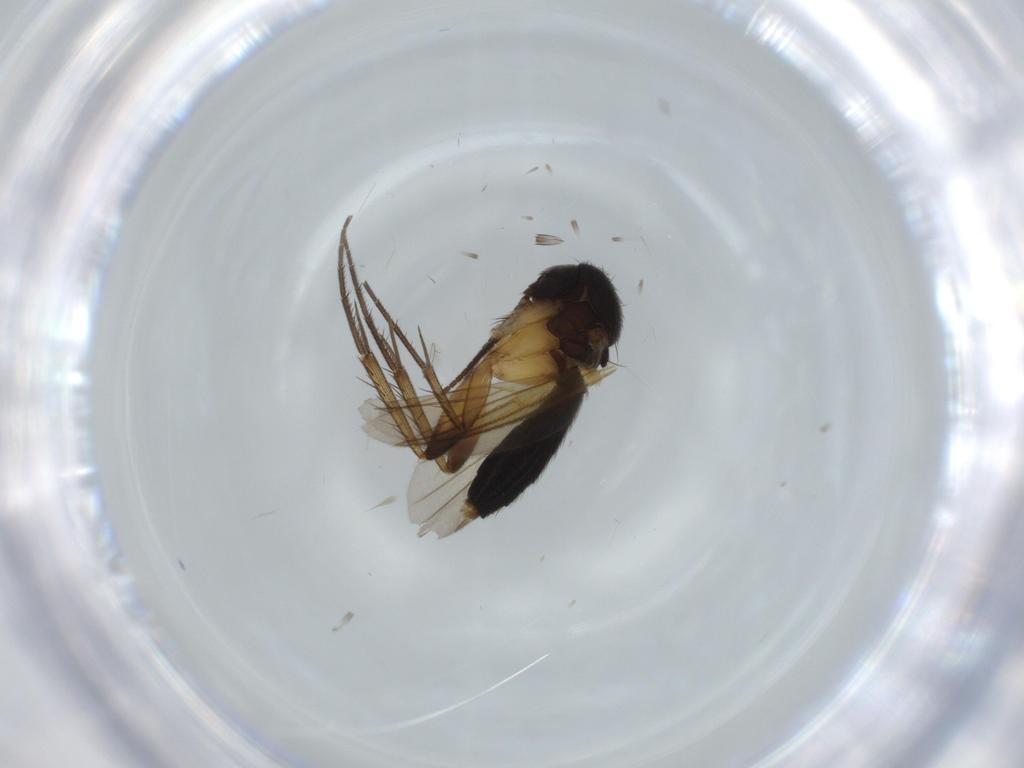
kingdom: Animalia
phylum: Arthropoda
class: Insecta
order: Diptera
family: Mycetophilidae
